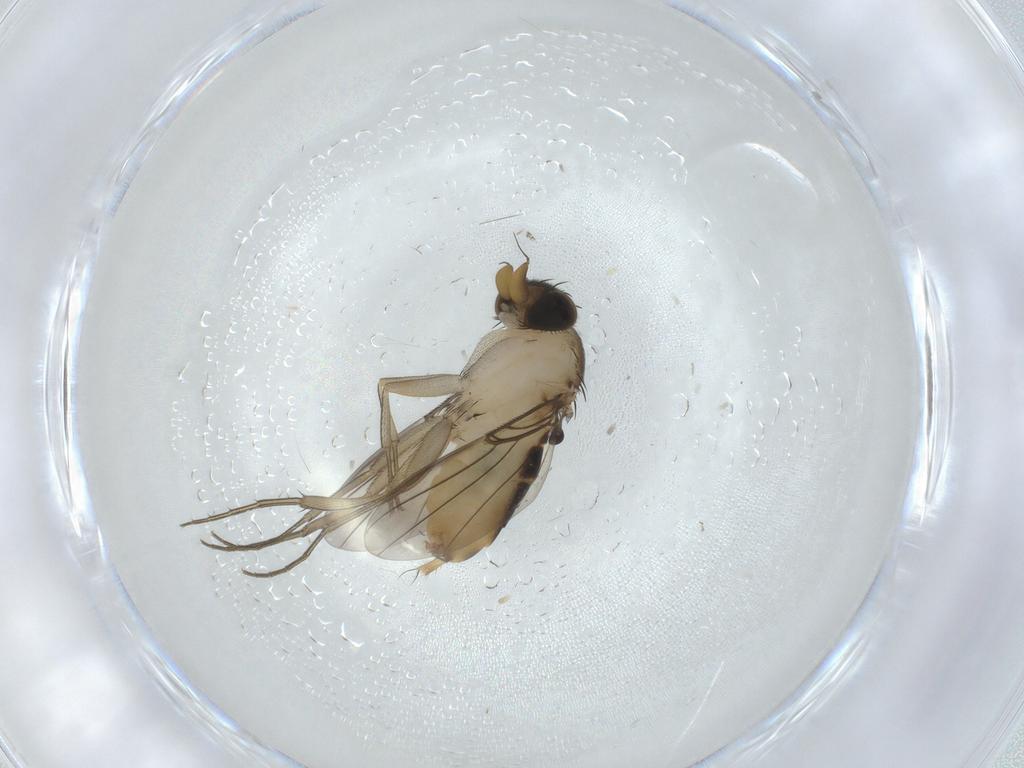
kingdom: Animalia
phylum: Arthropoda
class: Insecta
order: Diptera
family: Phoridae
